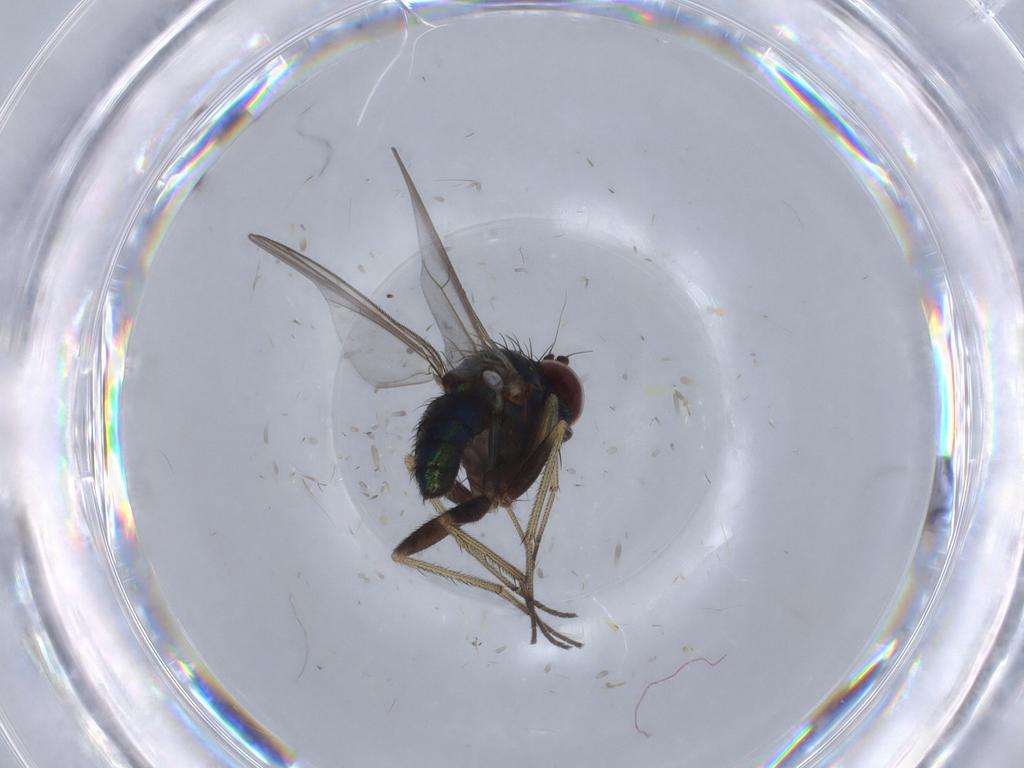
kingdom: Animalia
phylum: Arthropoda
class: Insecta
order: Diptera
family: Dolichopodidae
